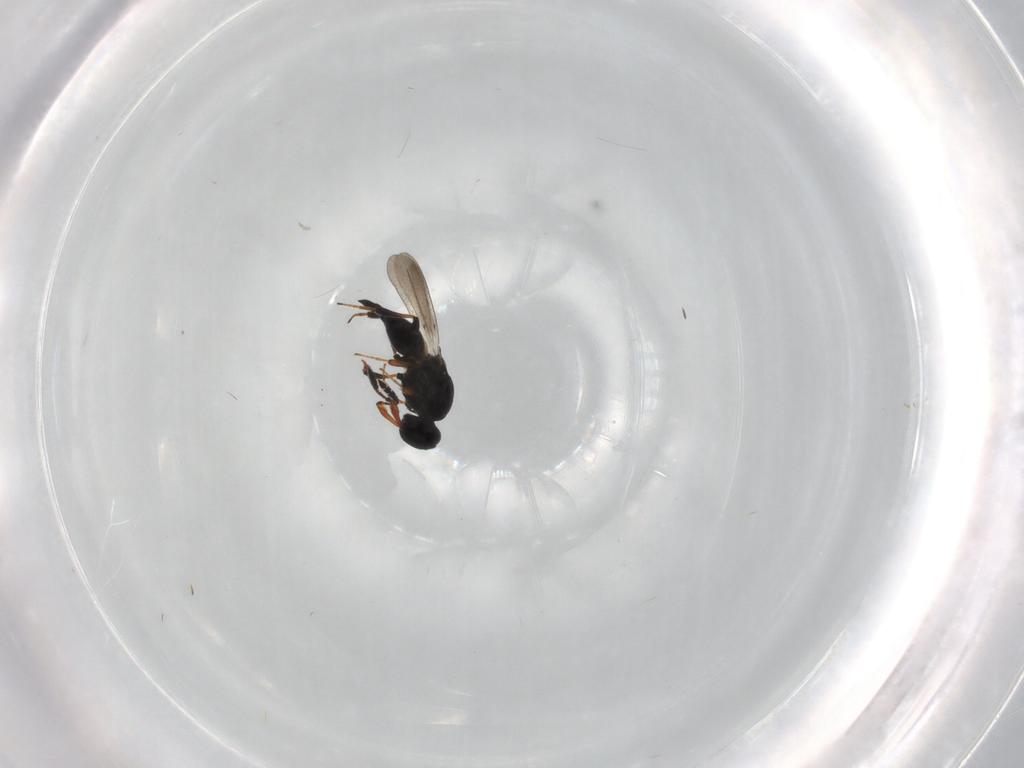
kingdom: Animalia
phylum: Arthropoda
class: Insecta
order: Hymenoptera
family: Platygastridae
